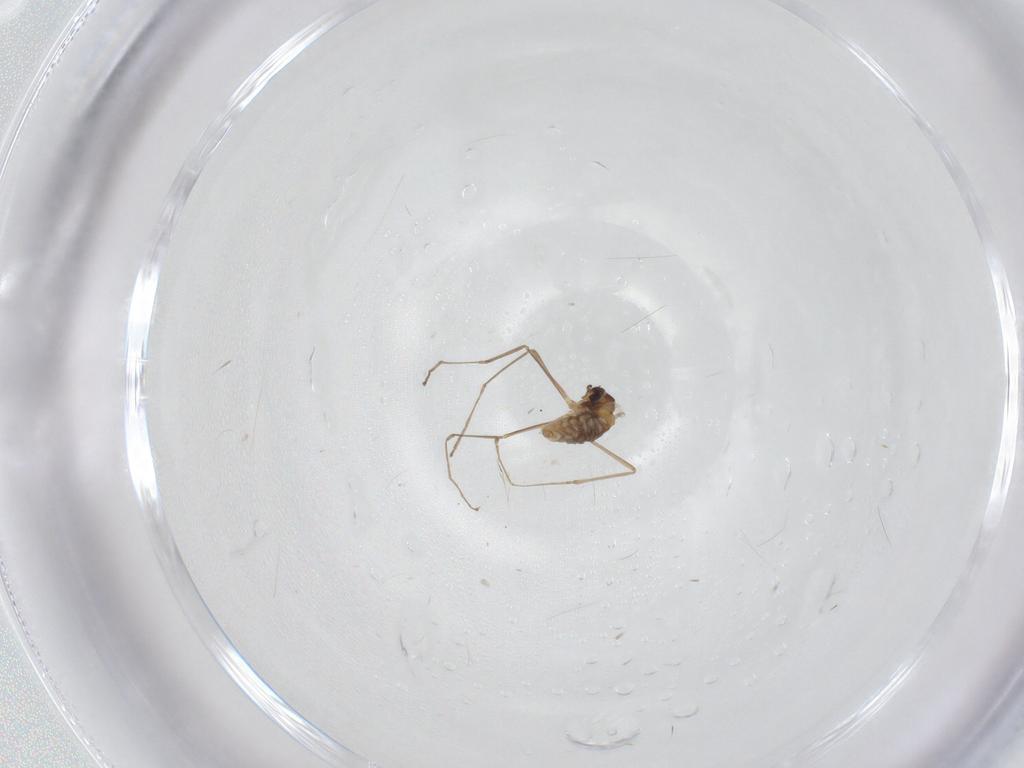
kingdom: Animalia
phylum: Arthropoda
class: Insecta
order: Diptera
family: Cecidomyiidae
